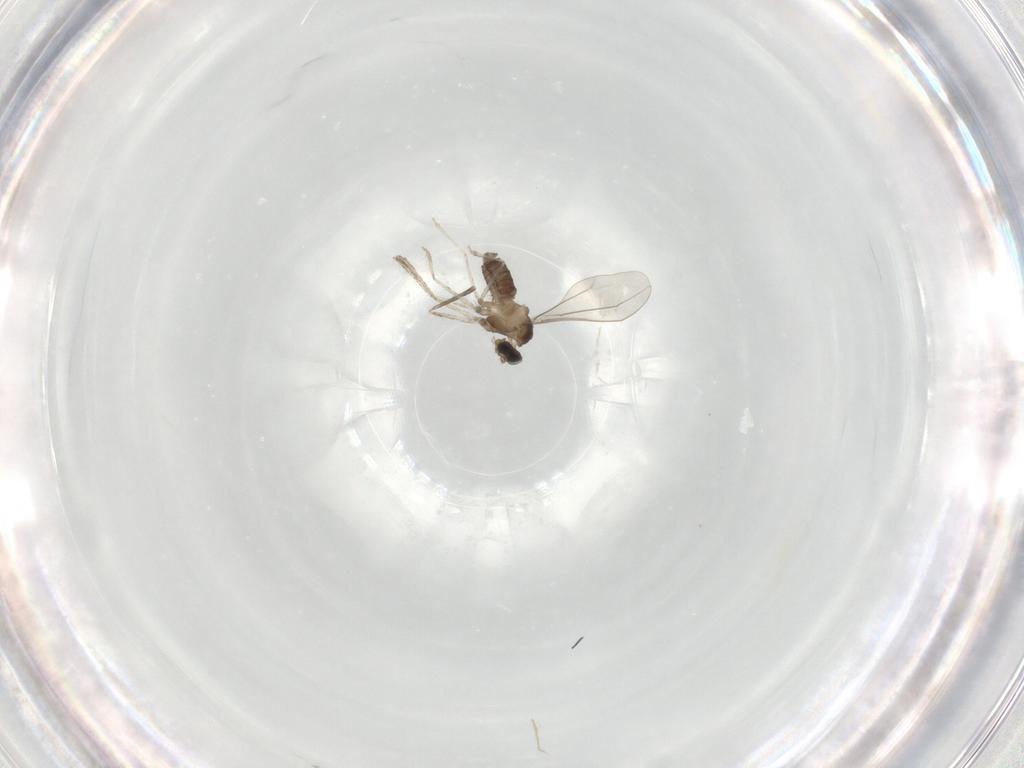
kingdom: Animalia
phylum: Arthropoda
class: Insecta
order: Diptera
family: Cecidomyiidae
